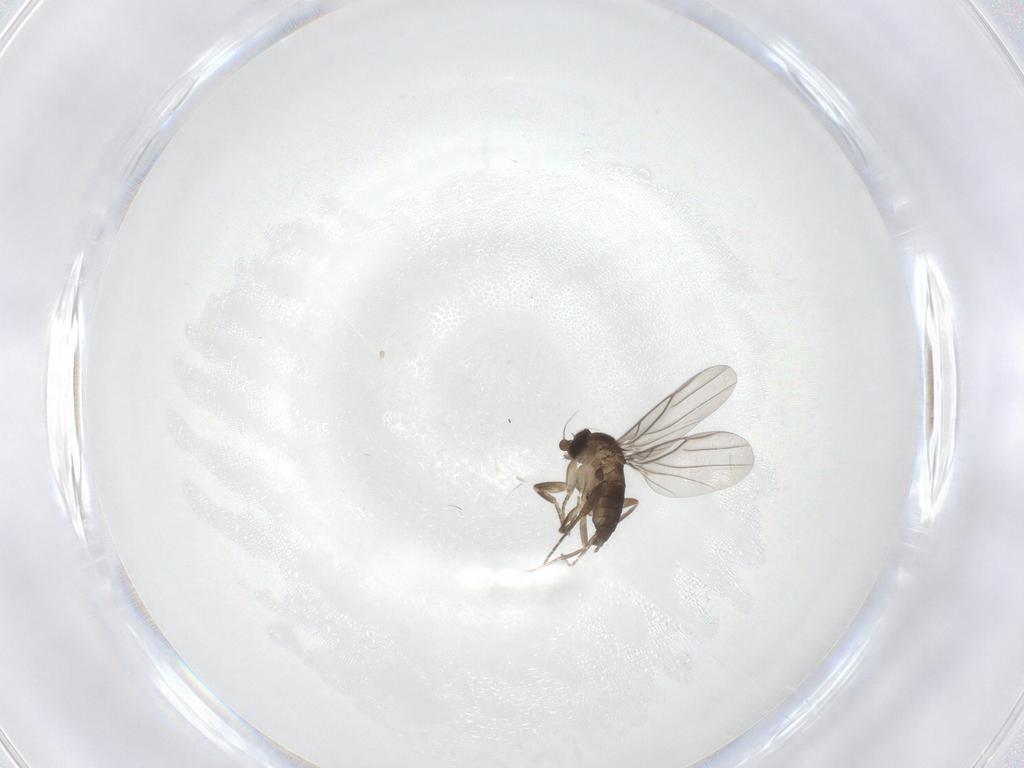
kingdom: Animalia
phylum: Arthropoda
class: Insecta
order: Diptera
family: Phoridae
